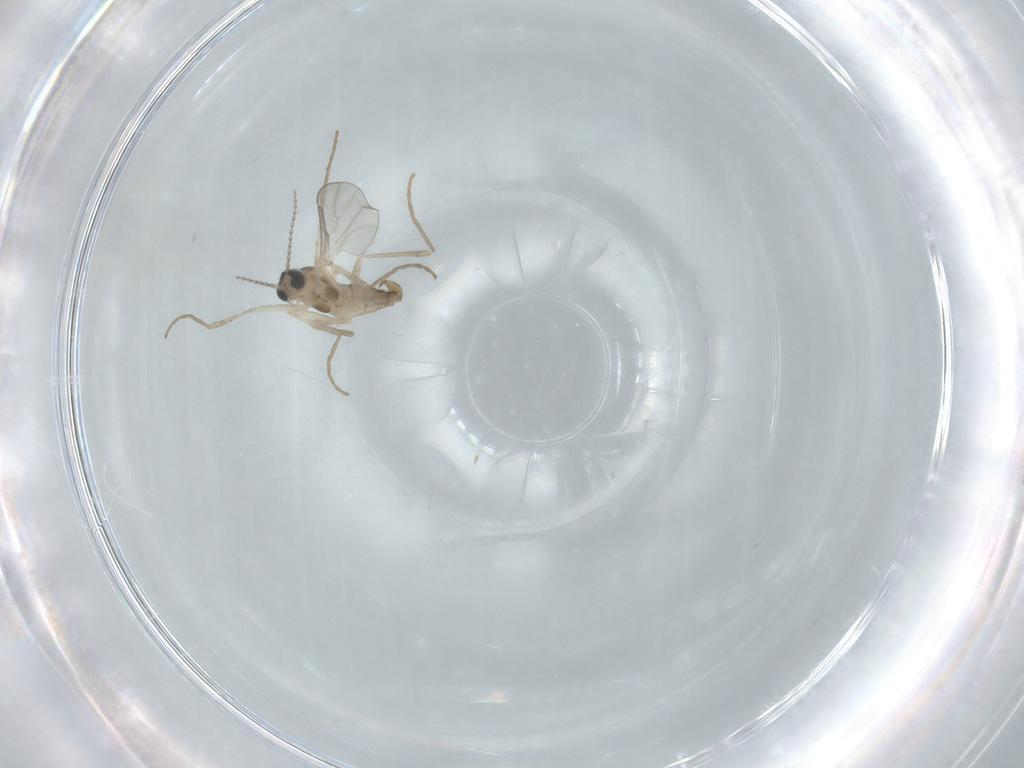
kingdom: Animalia
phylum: Arthropoda
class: Insecta
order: Diptera
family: Cecidomyiidae
